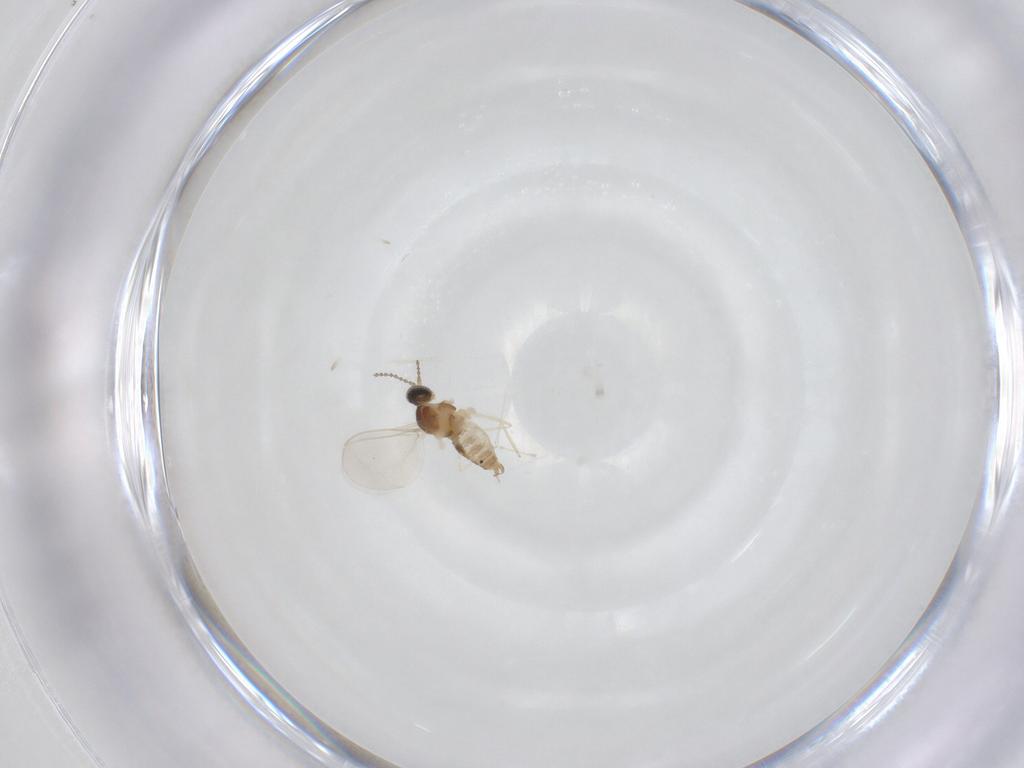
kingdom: Animalia
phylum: Arthropoda
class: Insecta
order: Diptera
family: Cecidomyiidae
